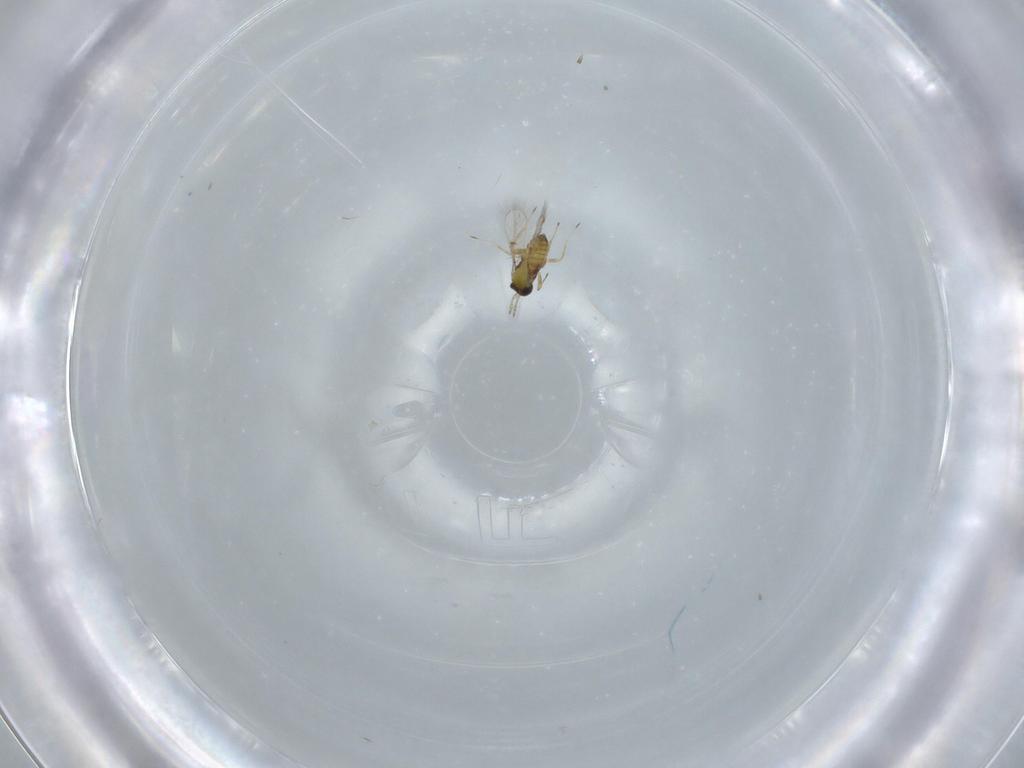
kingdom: Animalia
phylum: Arthropoda
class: Insecta
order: Hymenoptera
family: Trichogrammatidae
